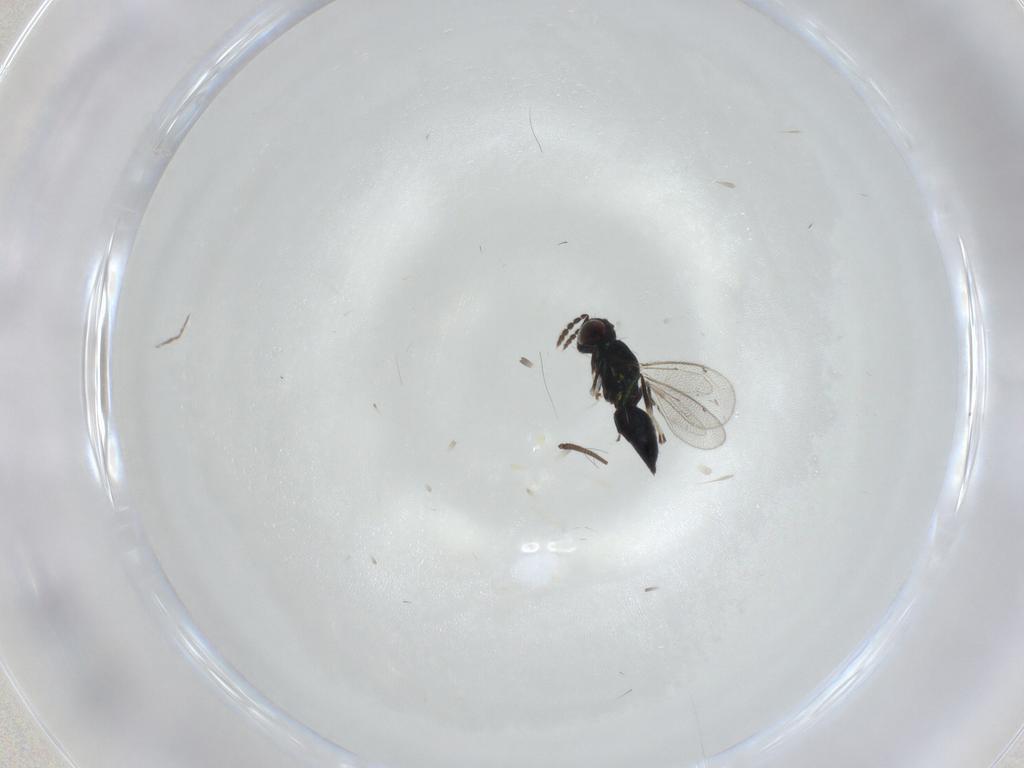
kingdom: Animalia
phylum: Arthropoda
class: Insecta
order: Hymenoptera
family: Eulophidae
